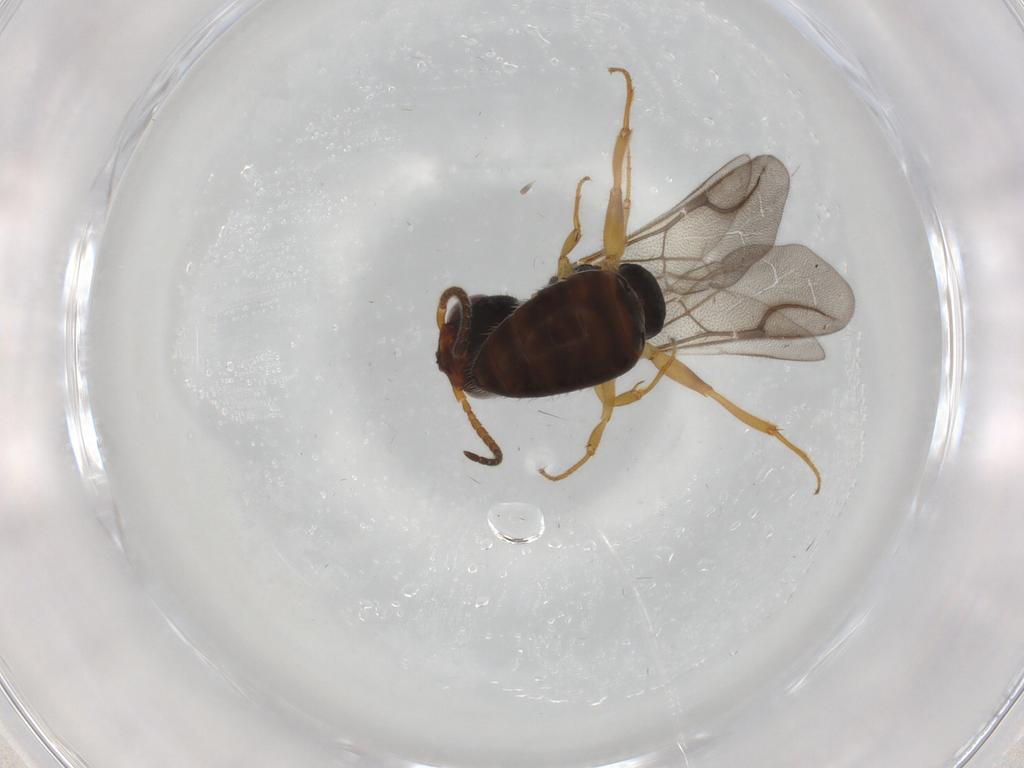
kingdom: Animalia
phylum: Arthropoda
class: Insecta
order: Hymenoptera
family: Bethylidae
